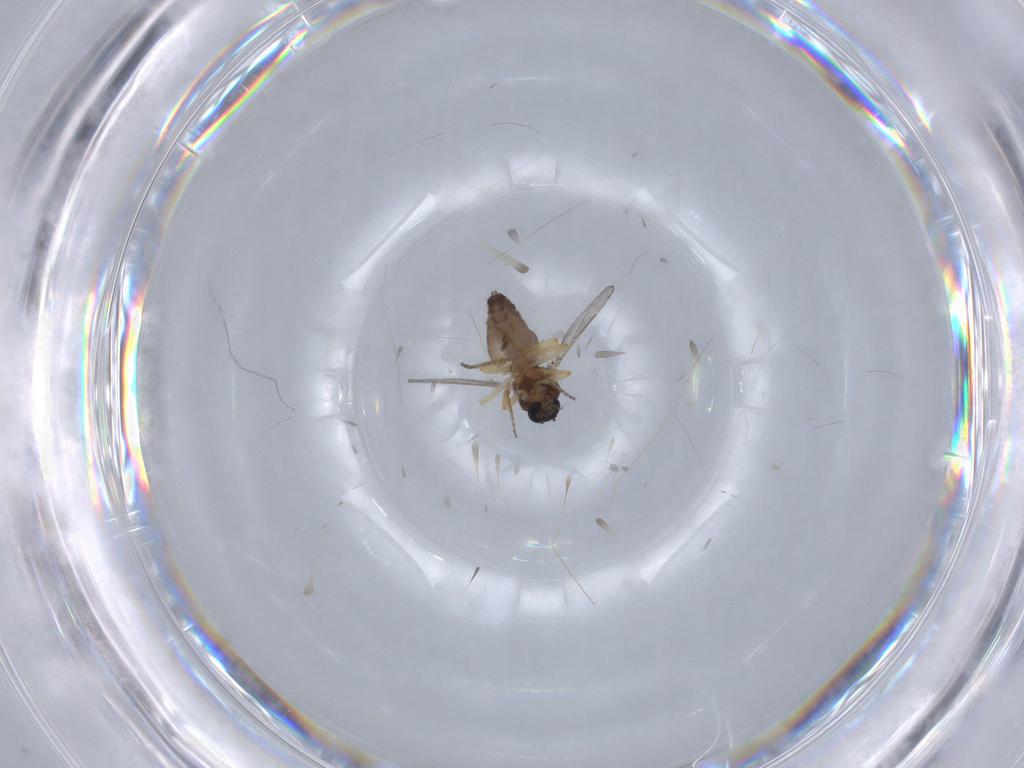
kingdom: Animalia
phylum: Arthropoda
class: Insecta
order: Diptera
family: Ceratopogonidae
